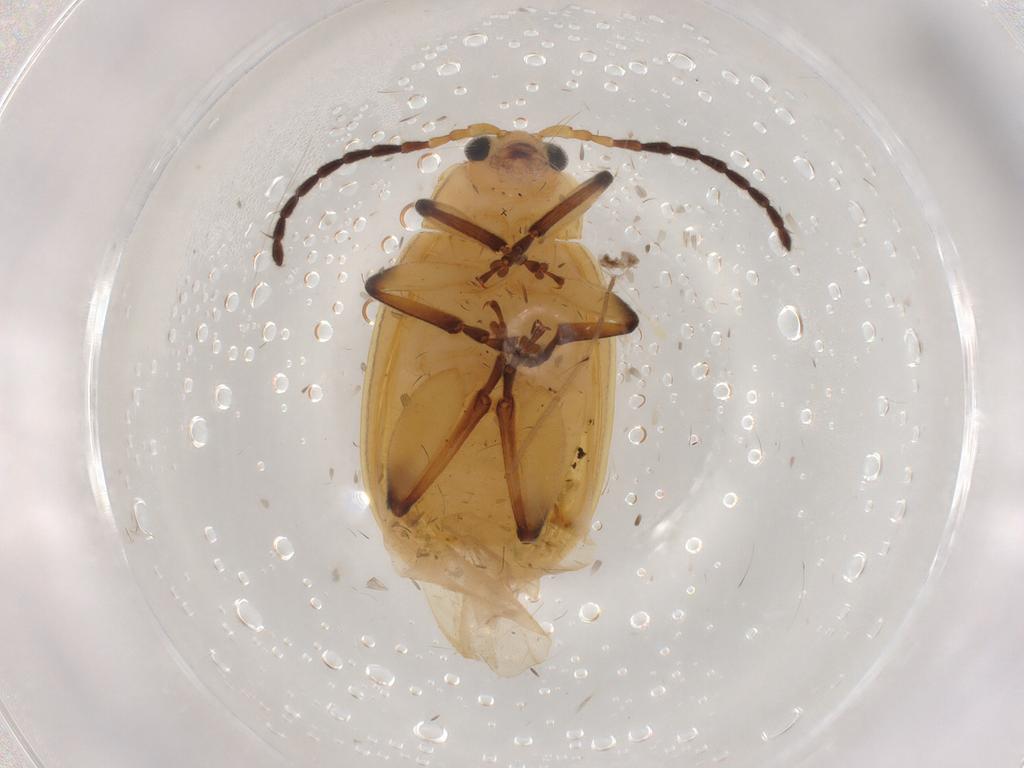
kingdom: Animalia
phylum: Arthropoda
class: Insecta
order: Coleoptera
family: Chrysomelidae
